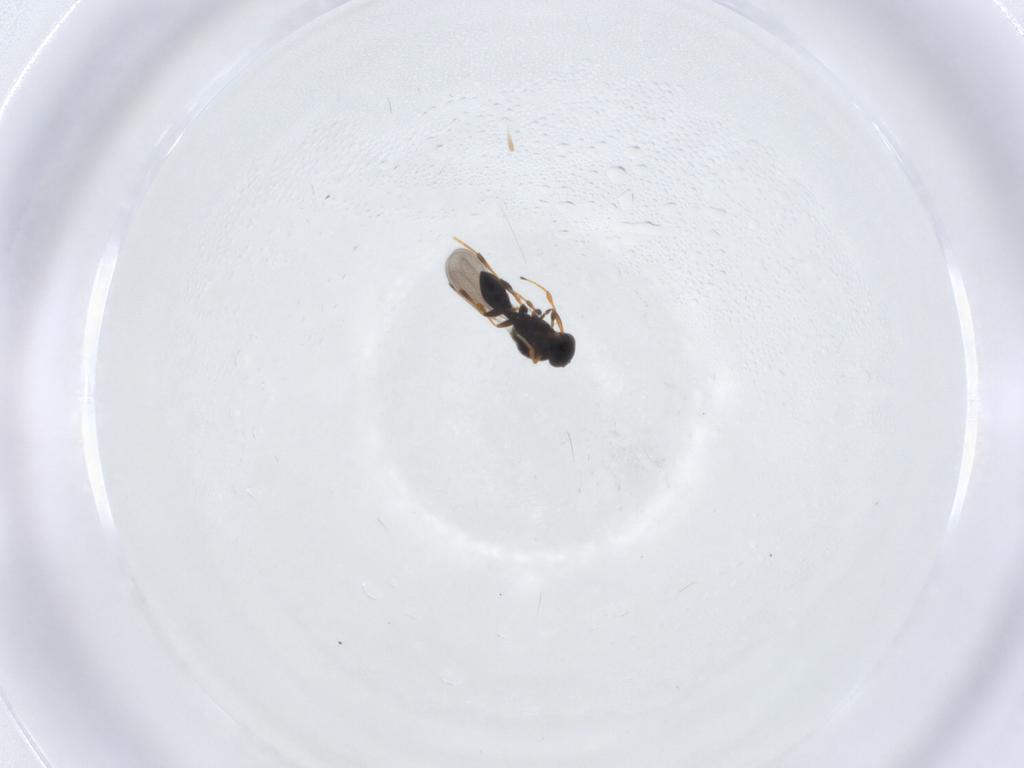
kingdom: Animalia
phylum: Arthropoda
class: Insecta
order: Hymenoptera
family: Platygastridae
